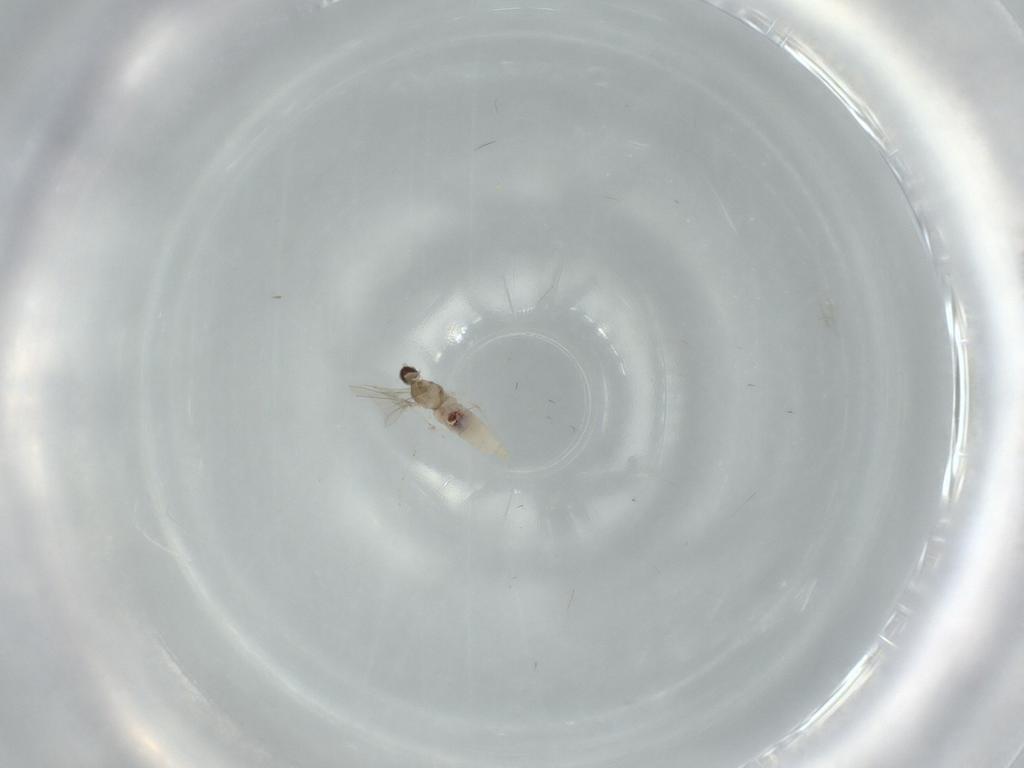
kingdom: Animalia
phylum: Arthropoda
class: Insecta
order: Diptera
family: Cecidomyiidae
